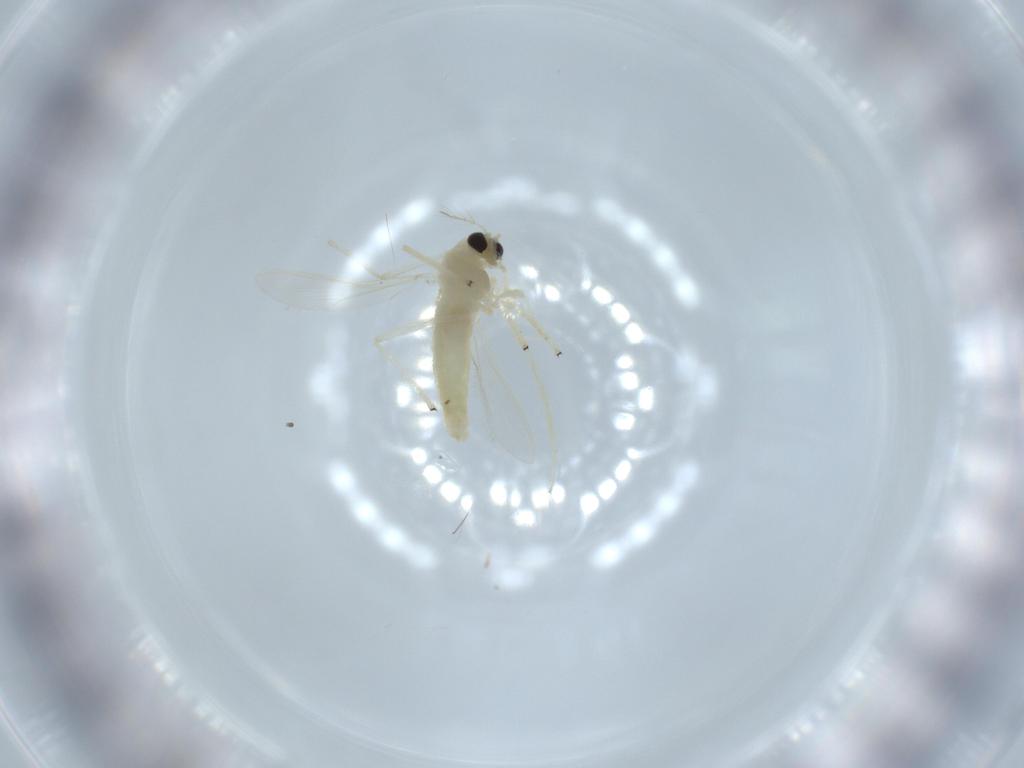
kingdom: Animalia
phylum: Arthropoda
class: Insecta
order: Diptera
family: Chironomidae
